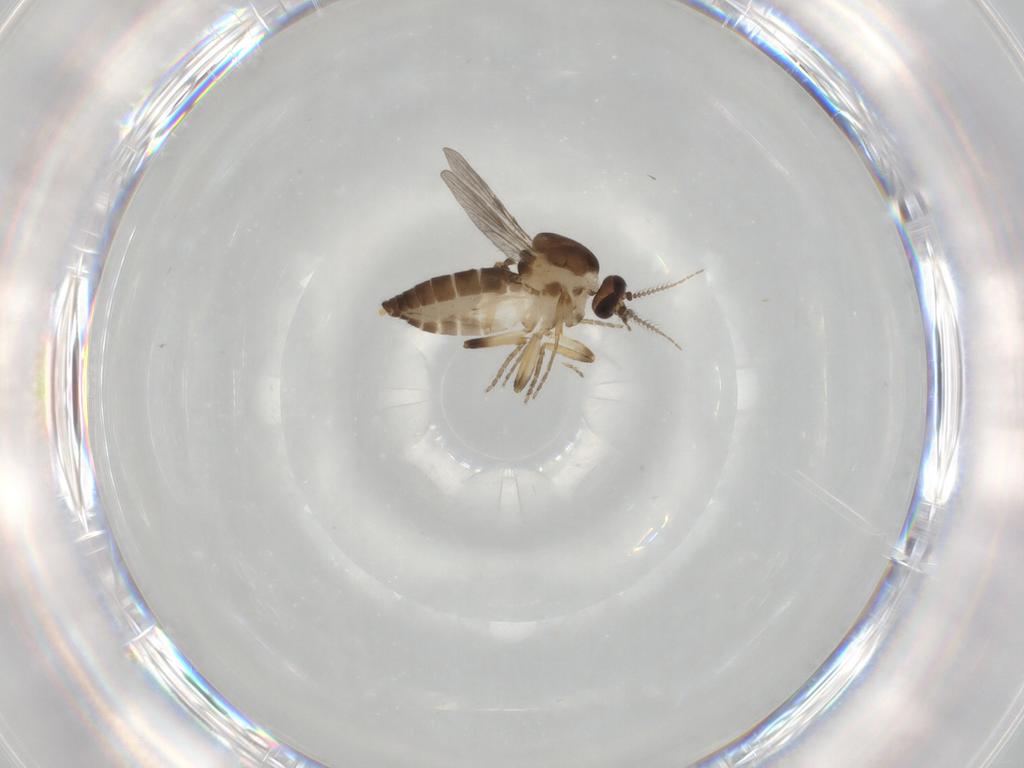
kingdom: Animalia
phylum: Arthropoda
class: Insecta
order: Diptera
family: Ceratopogonidae
